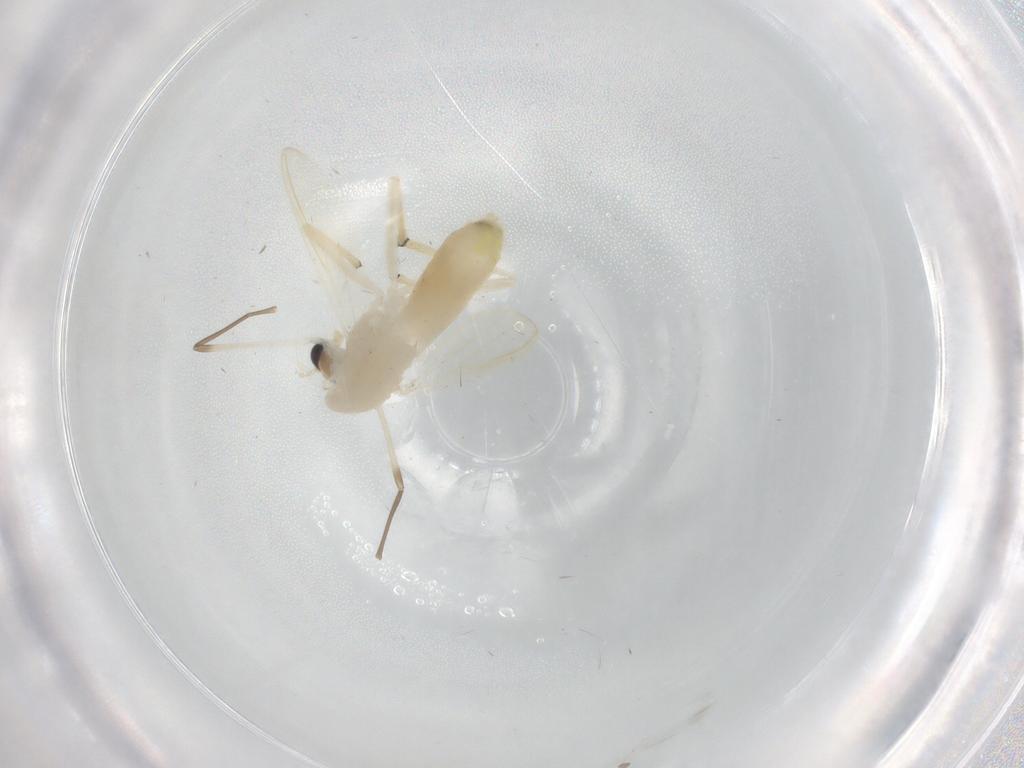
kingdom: Animalia
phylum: Arthropoda
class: Insecta
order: Diptera
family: Chironomidae
